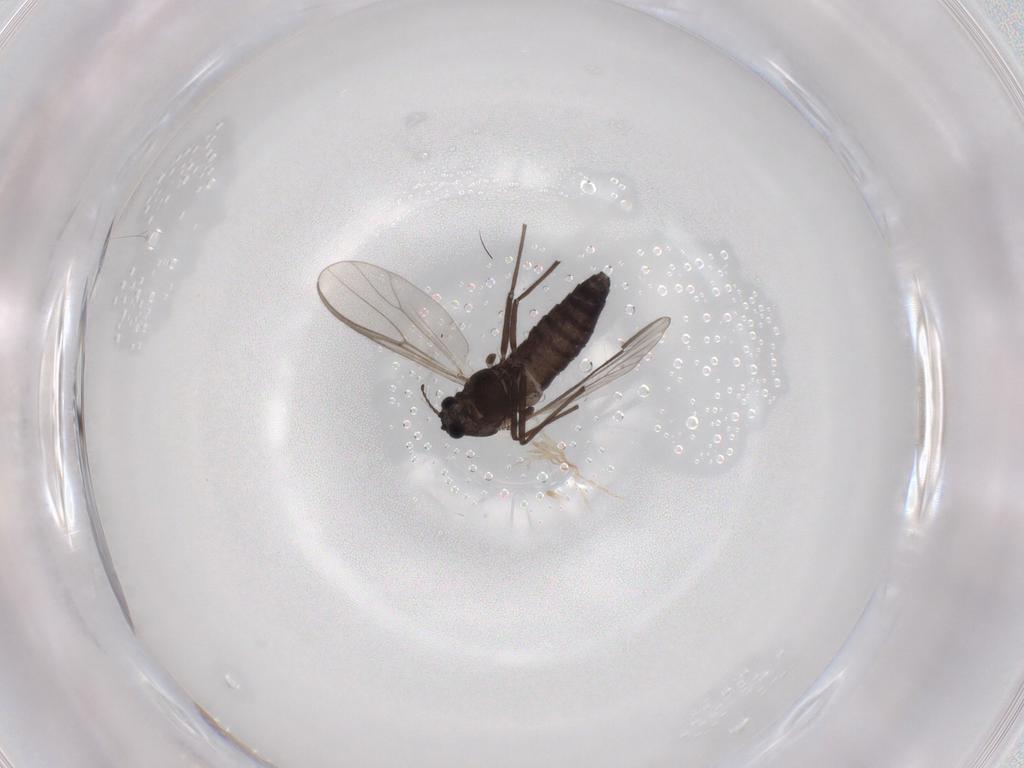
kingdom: Animalia
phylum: Arthropoda
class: Insecta
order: Diptera
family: Chironomidae
